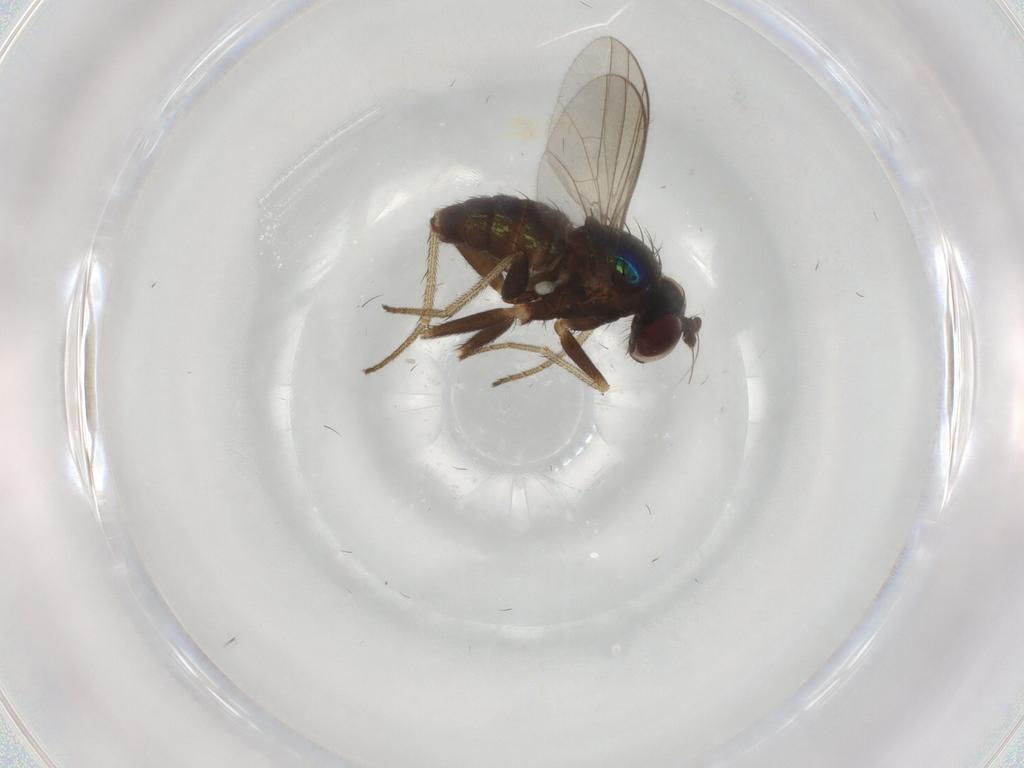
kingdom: Animalia
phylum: Arthropoda
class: Insecta
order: Diptera
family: Dolichopodidae
